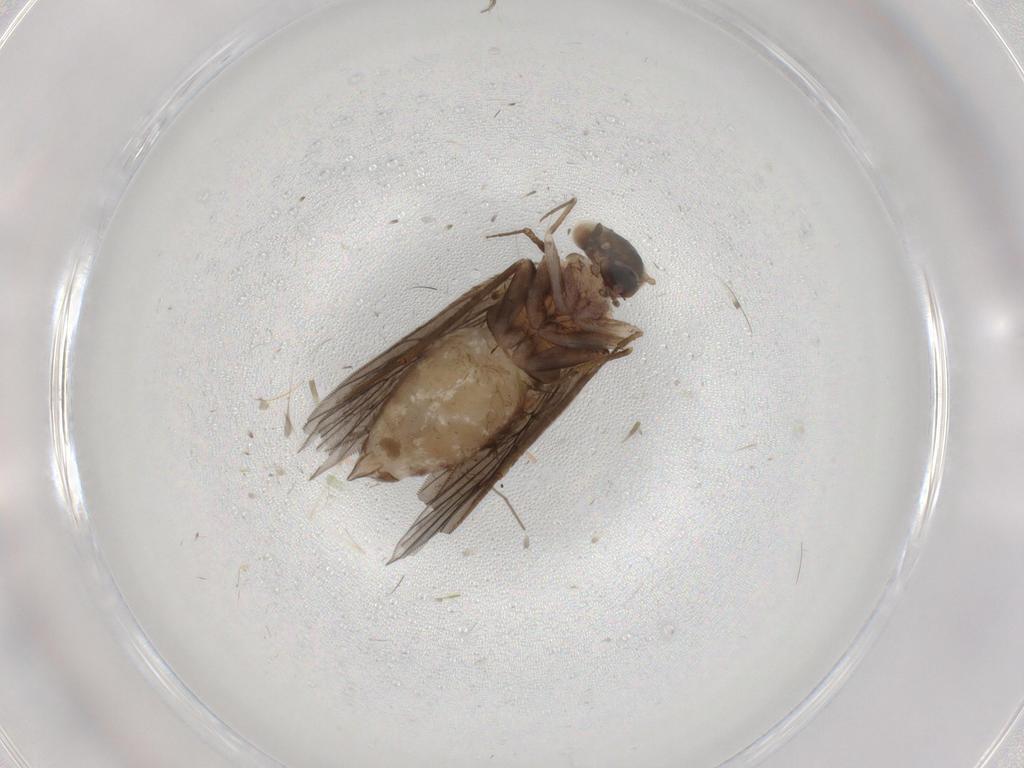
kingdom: Animalia
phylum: Arthropoda
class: Insecta
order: Psocodea
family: Lepidopsocidae
